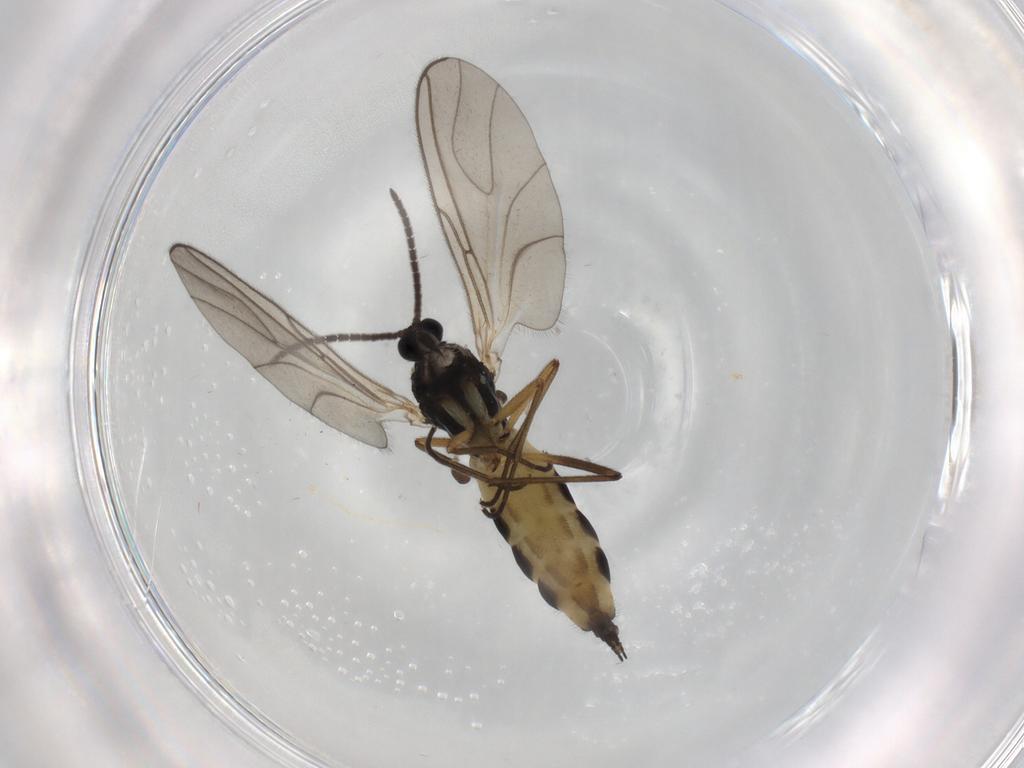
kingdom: Animalia
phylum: Arthropoda
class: Insecta
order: Diptera
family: Sciaridae
